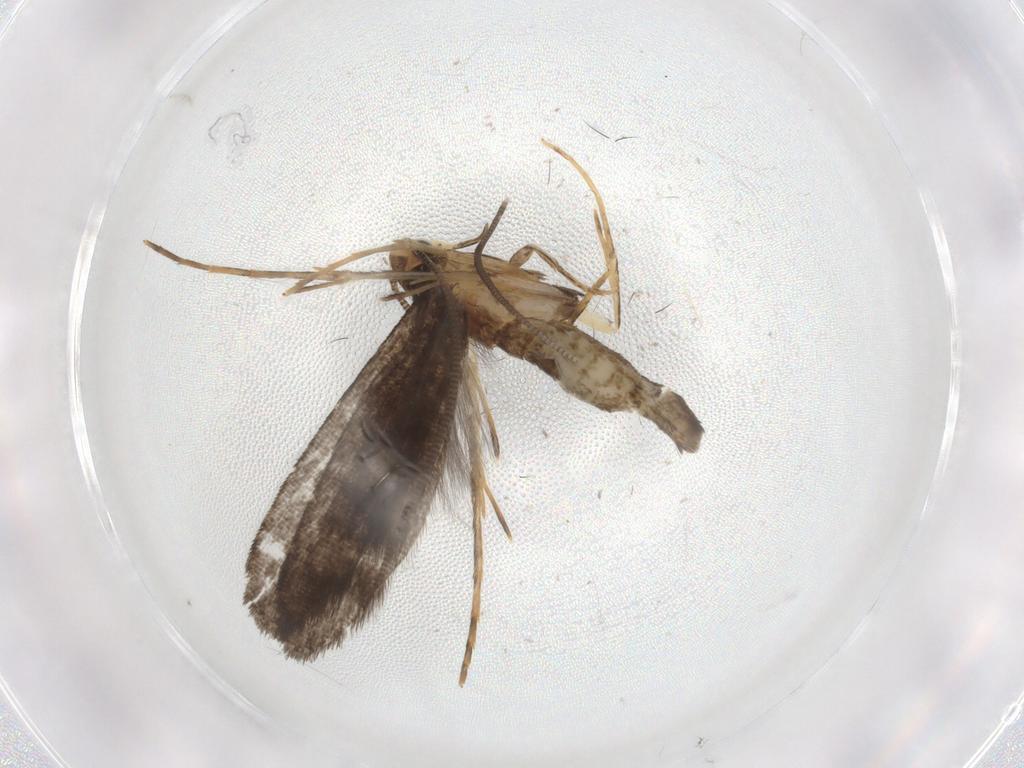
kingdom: Animalia
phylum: Arthropoda
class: Insecta
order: Lepidoptera
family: Tineidae
